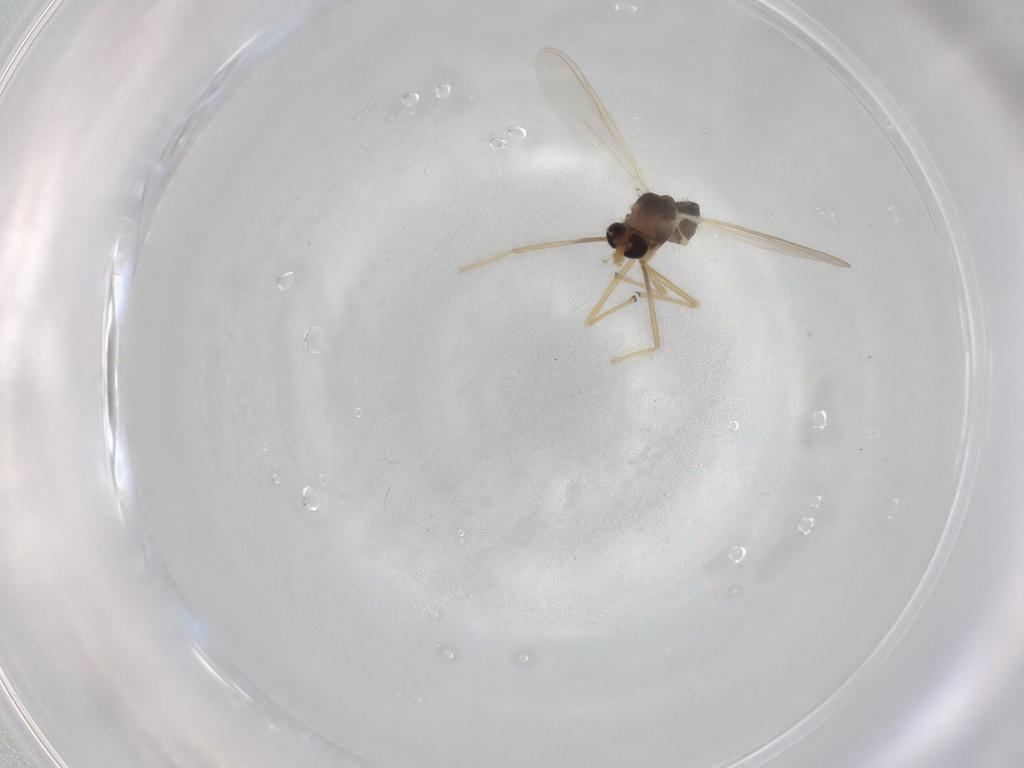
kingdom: Animalia
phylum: Arthropoda
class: Insecta
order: Diptera
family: Chironomidae
